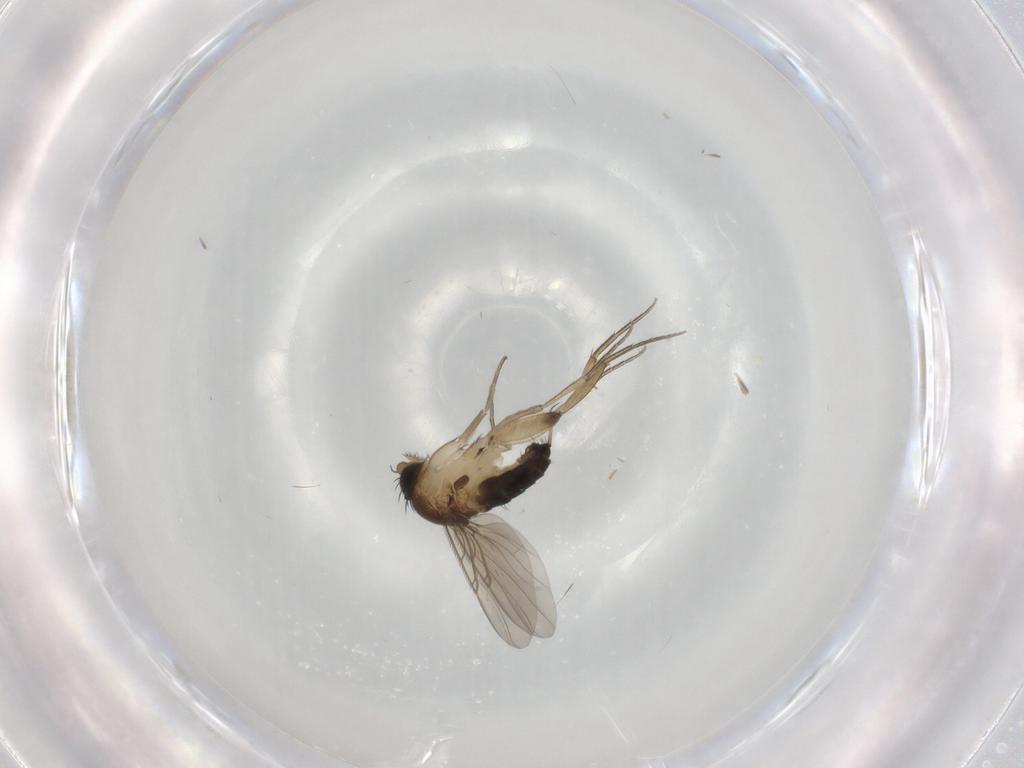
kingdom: Animalia
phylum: Arthropoda
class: Insecta
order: Diptera
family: Phoridae
